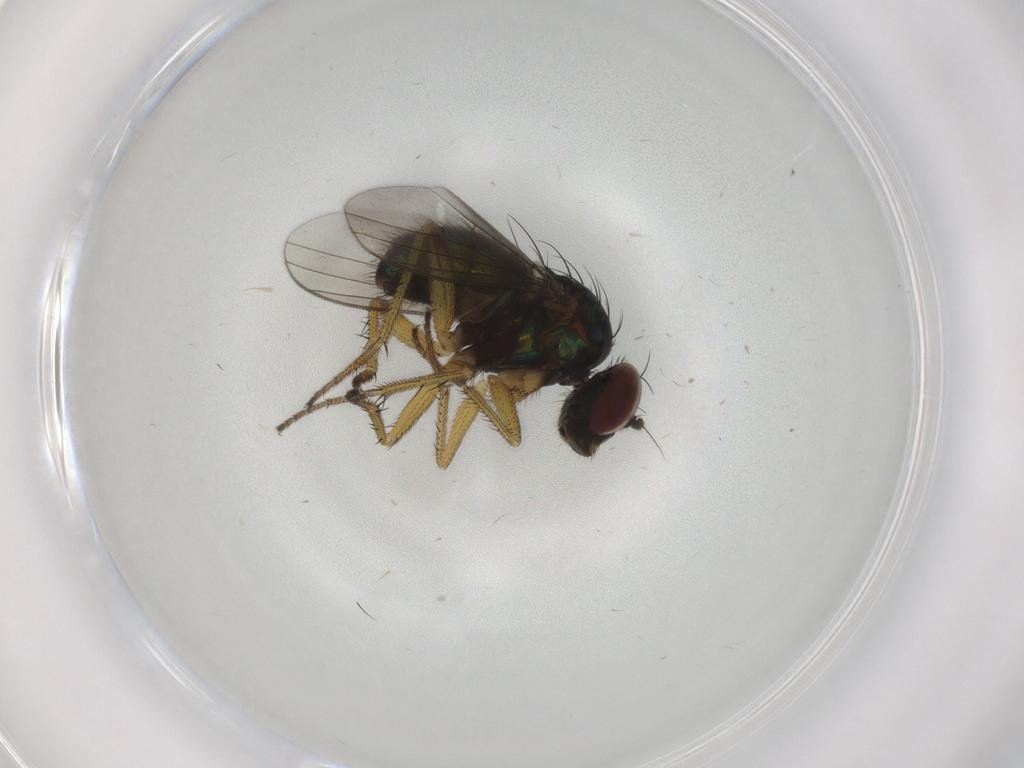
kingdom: Animalia
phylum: Arthropoda
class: Insecta
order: Diptera
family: Dolichopodidae
